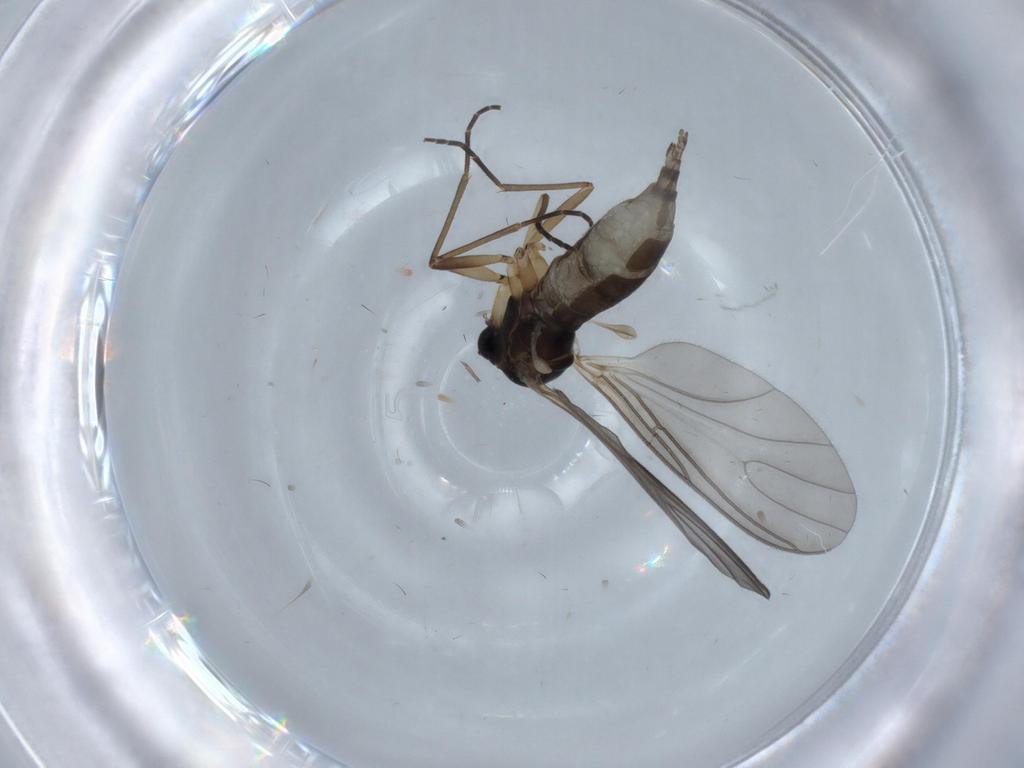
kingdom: Animalia
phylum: Arthropoda
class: Insecta
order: Diptera
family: Sciaridae
